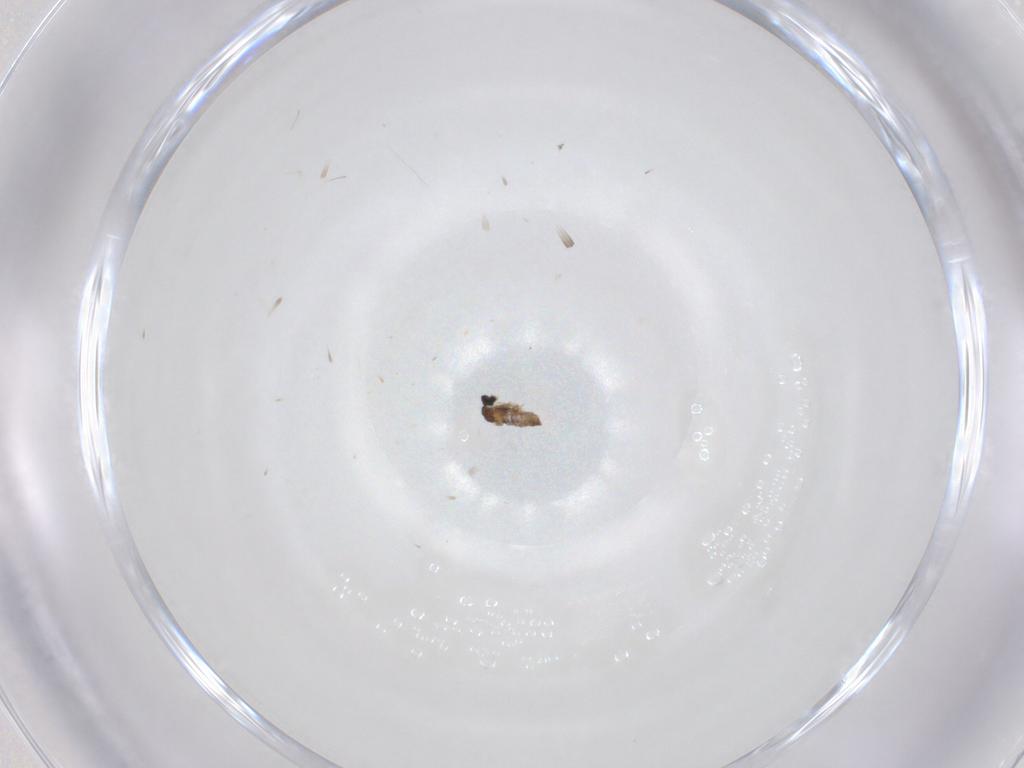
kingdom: Animalia
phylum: Arthropoda
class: Insecta
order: Diptera
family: Cecidomyiidae
